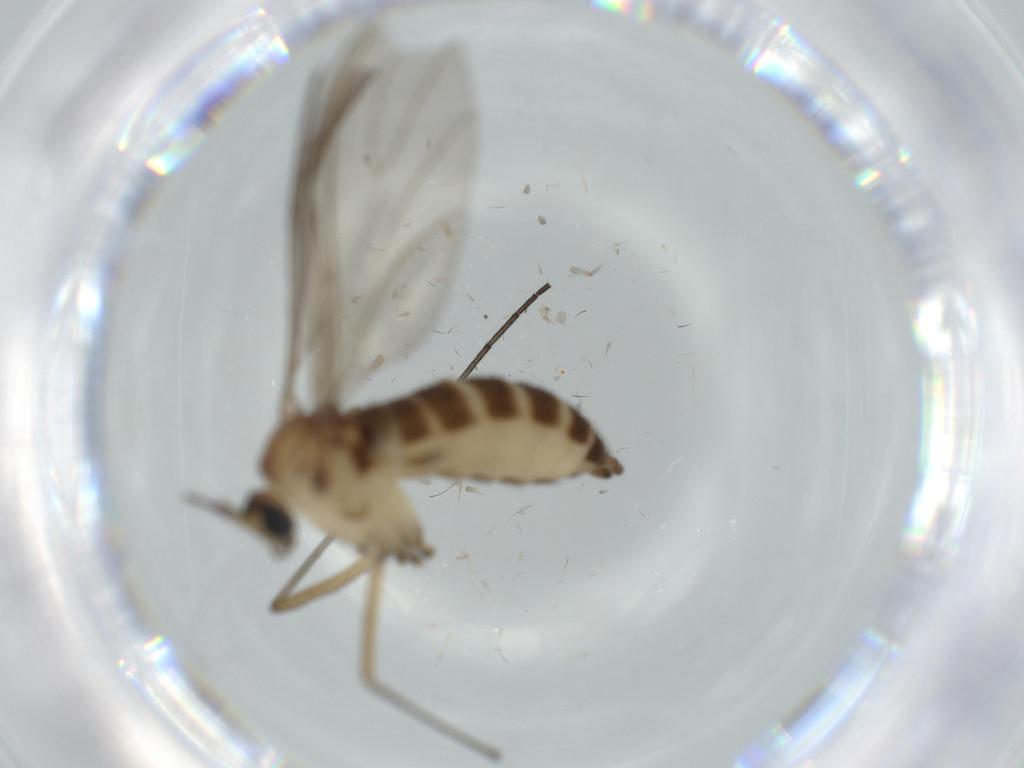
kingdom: Animalia
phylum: Arthropoda
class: Insecta
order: Diptera
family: Sciaridae
